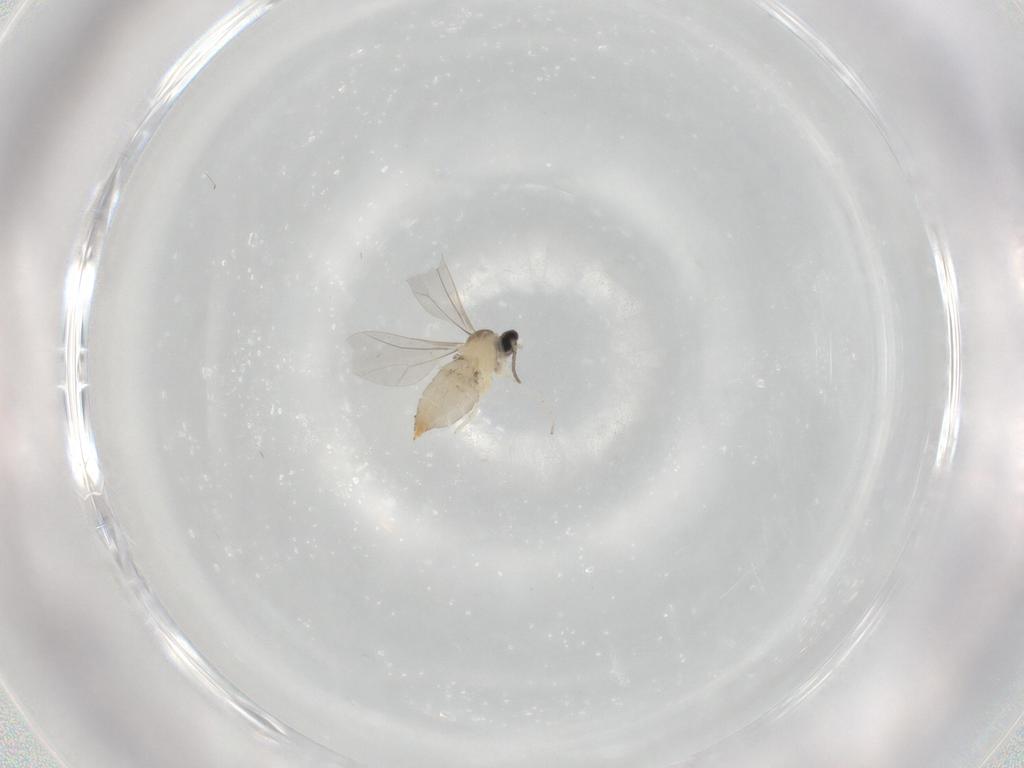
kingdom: Animalia
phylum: Arthropoda
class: Insecta
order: Diptera
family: Cecidomyiidae
